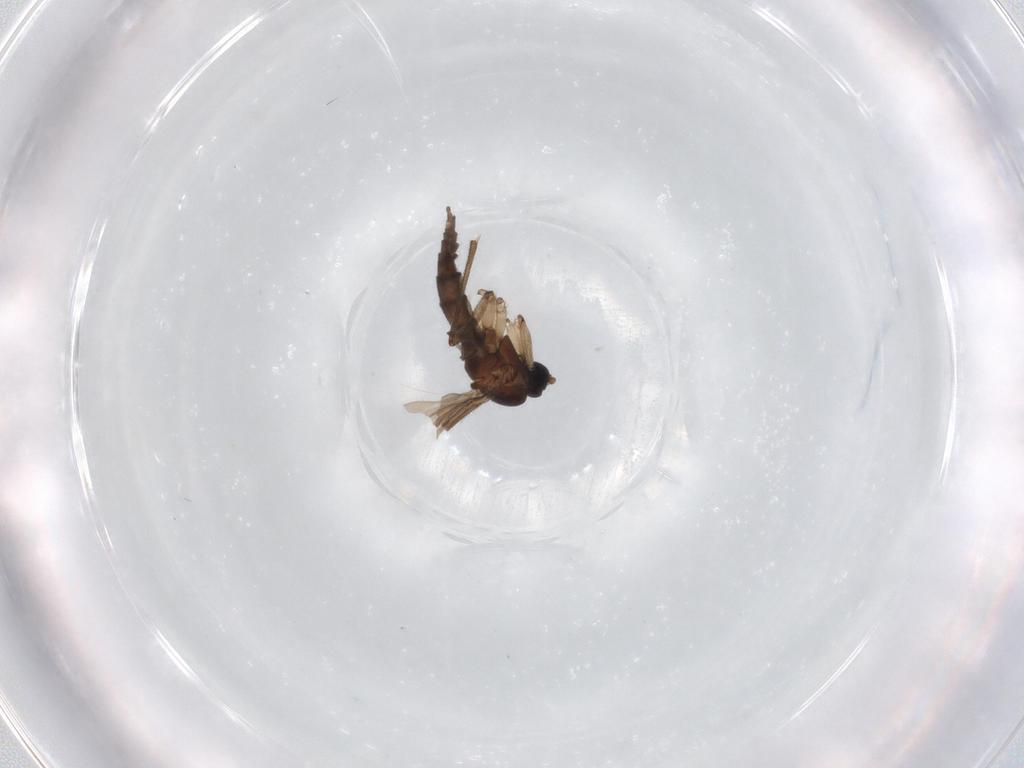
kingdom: Animalia
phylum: Arthropoda
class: Insecta
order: Diptera
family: Sciaridae
